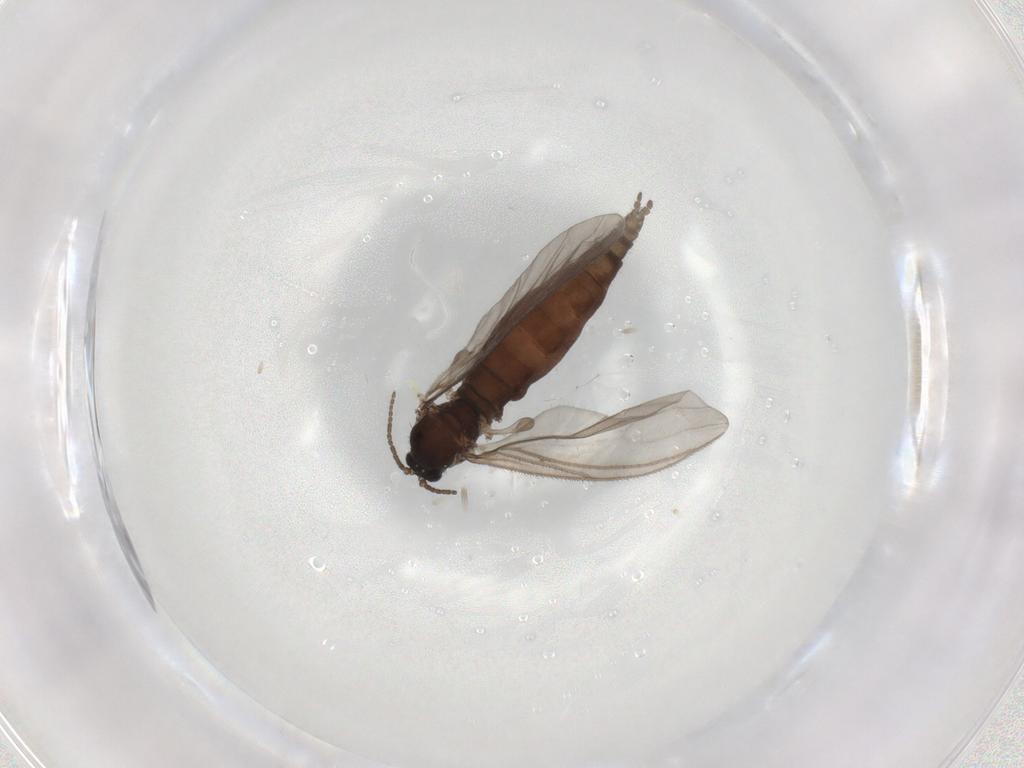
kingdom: Animalia
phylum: Arthropoda
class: Insecta
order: Diptera
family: Sciaridae
